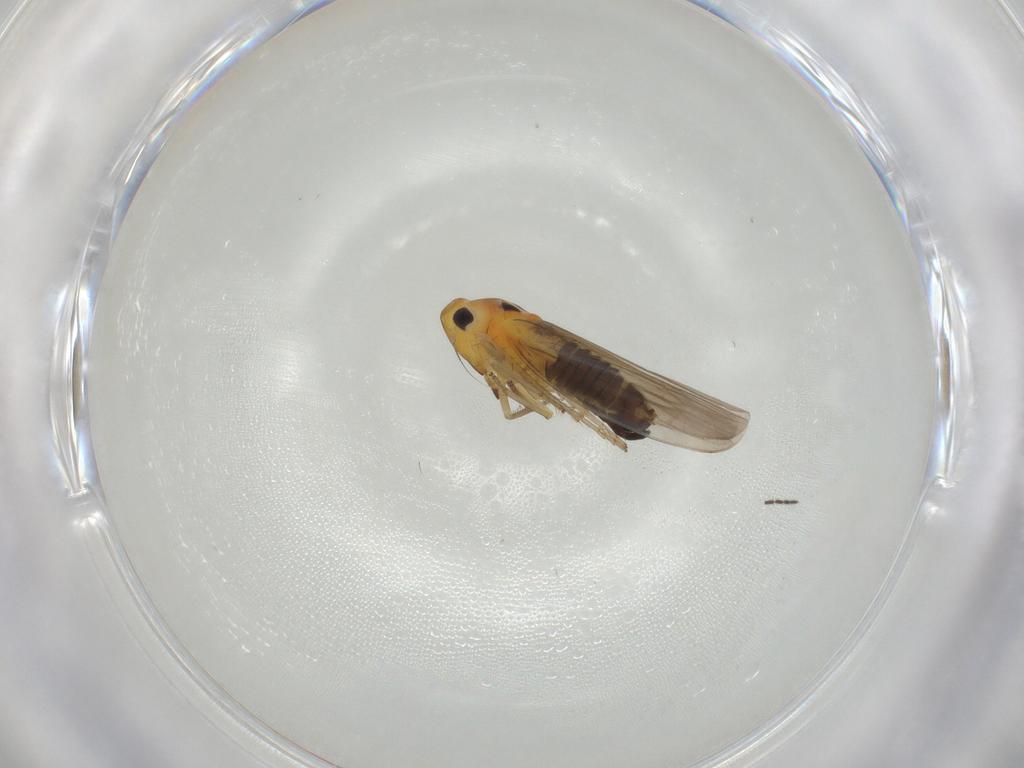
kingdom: Animalia
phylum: Arthropoda
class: Insecta
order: Hemiptera
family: Cicadellidae
